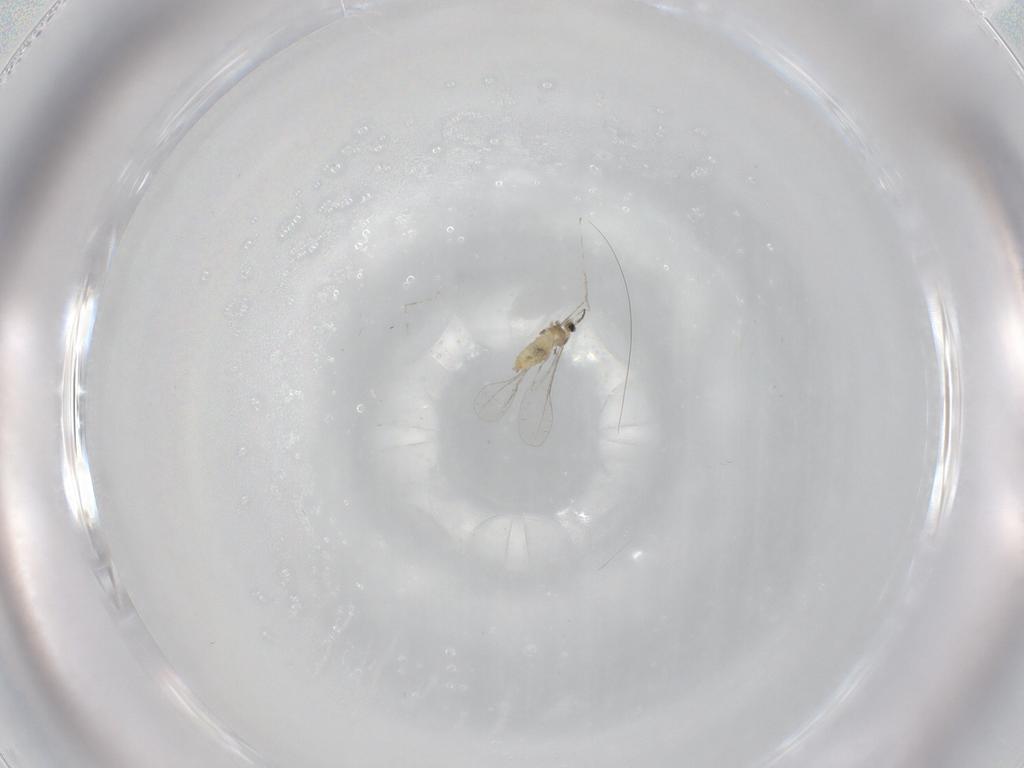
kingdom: Animalia
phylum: Arthropoda
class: Insecta
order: Diptera
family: Cecidomyiidae
